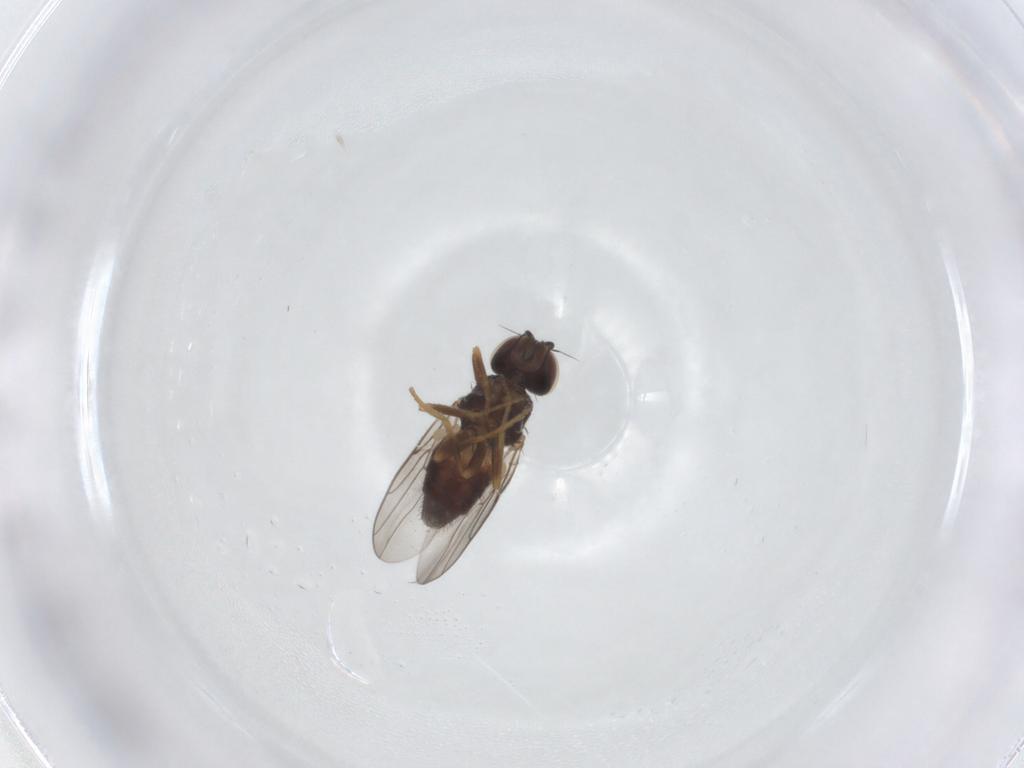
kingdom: Animalia
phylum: Arthropoda
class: Insecta
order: Diptera
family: Chloropidae
